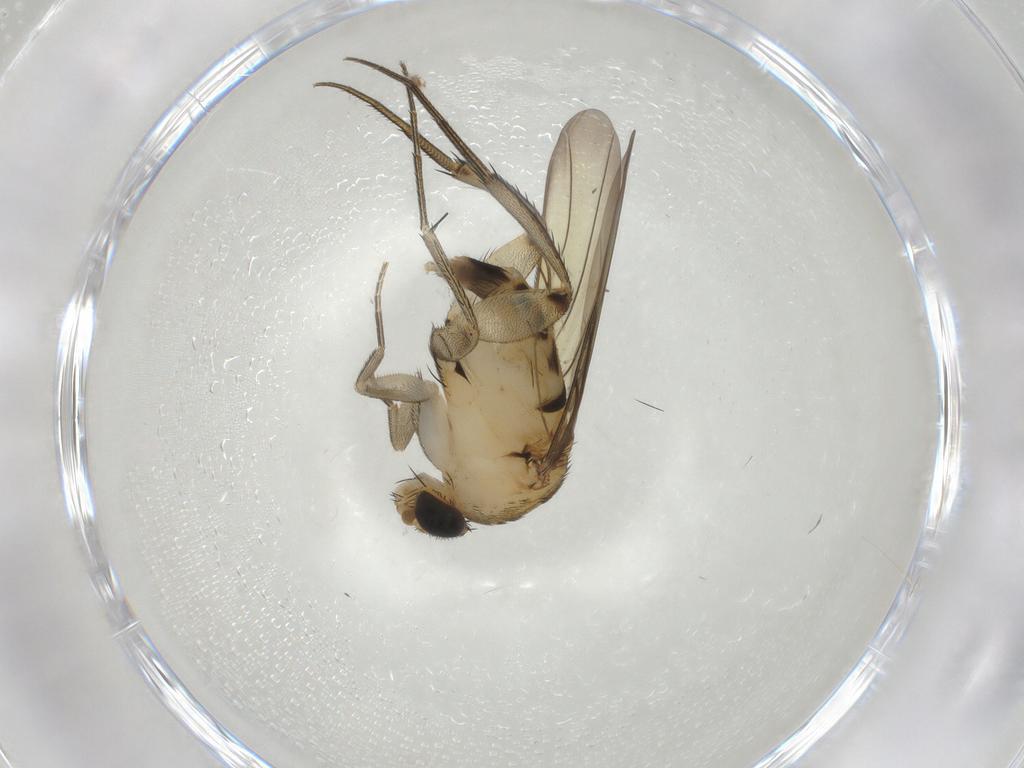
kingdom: Animalia
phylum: Arthropoda
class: Insecta
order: Diptera
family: Phoridae
